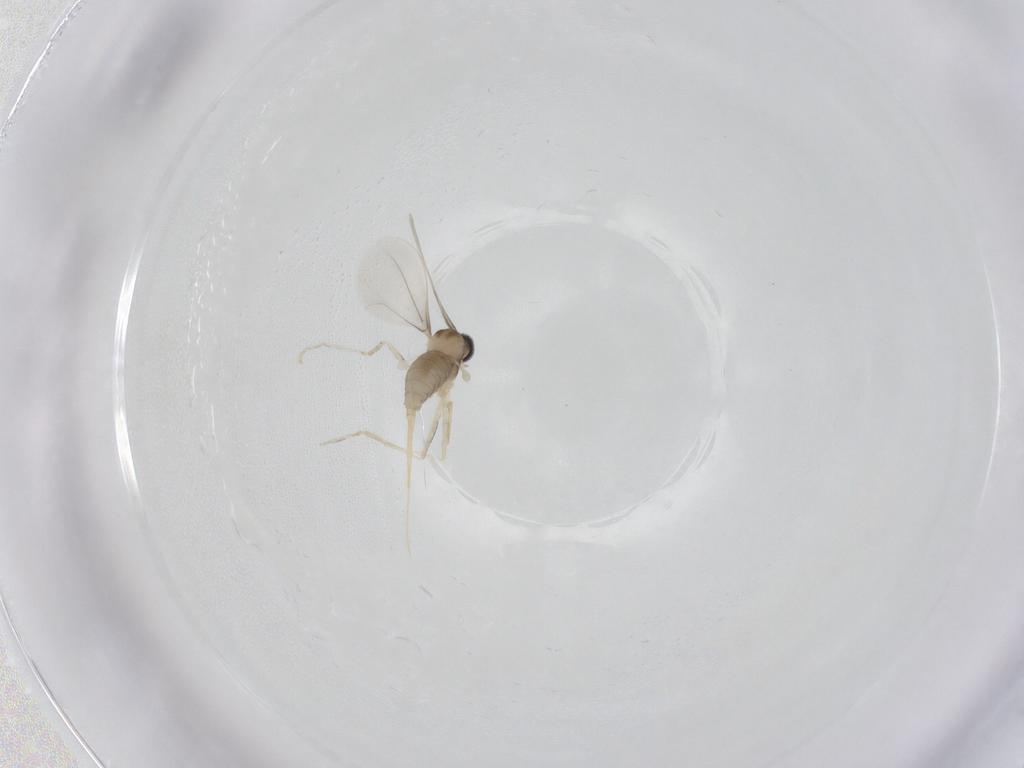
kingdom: Animalia
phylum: Arthropoda
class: Insecta
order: Diptera
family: Cecidomyiidae
